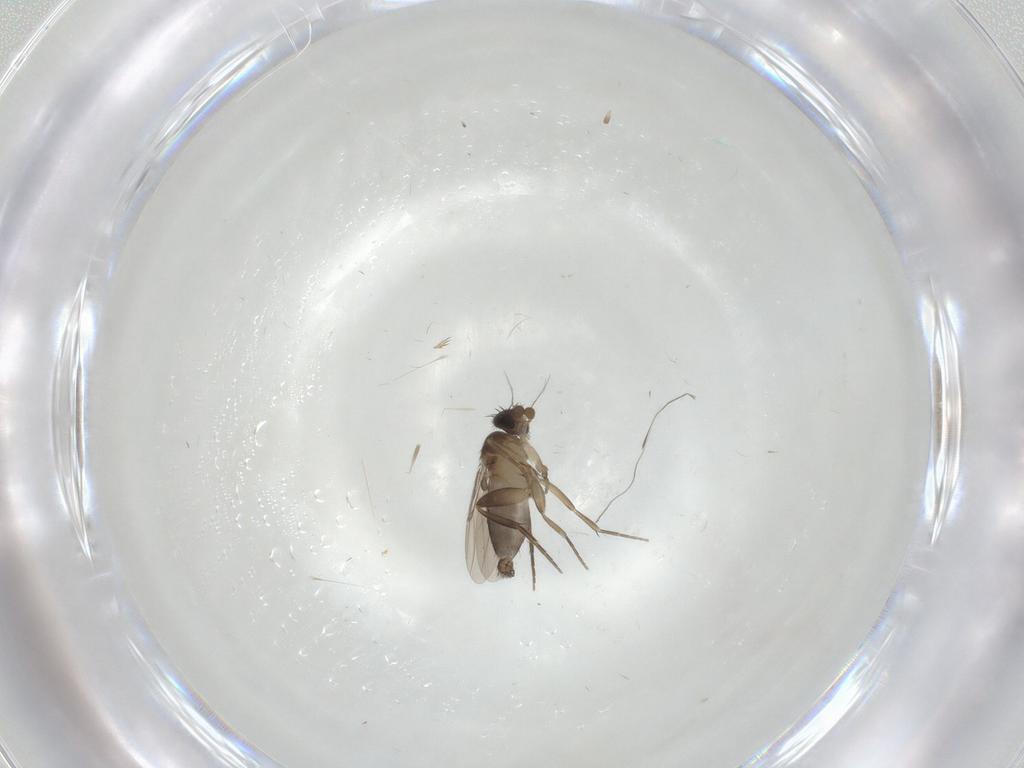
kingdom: Animalia
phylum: Arthropoda
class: Insecta
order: Diptera
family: Phoridae
